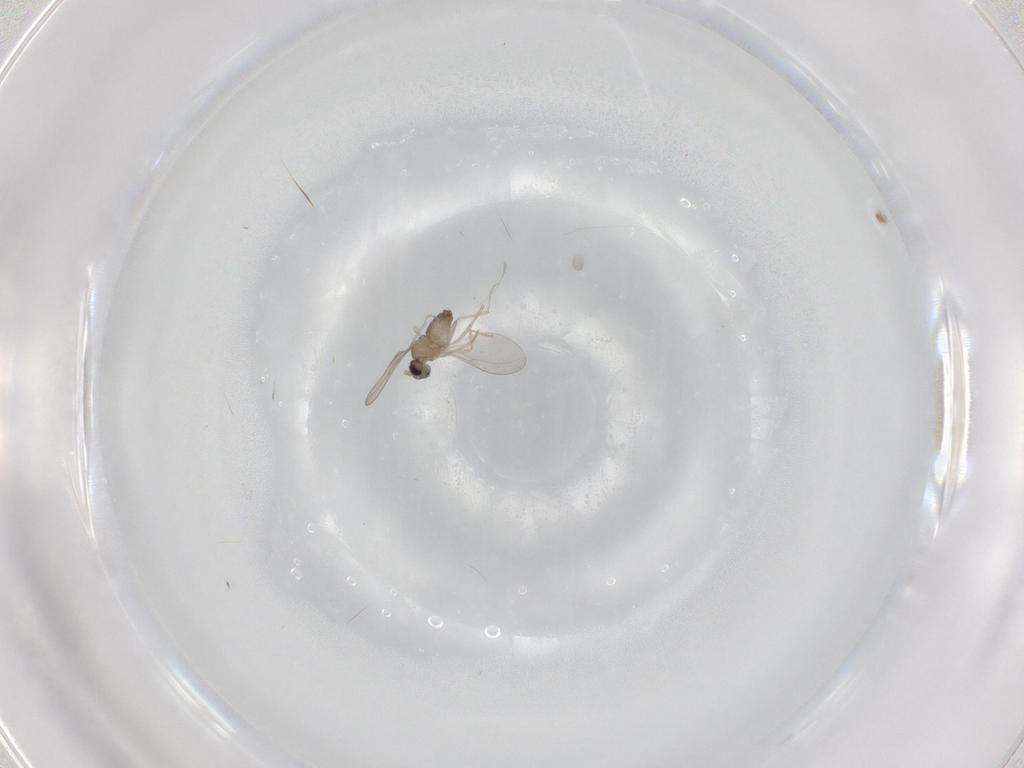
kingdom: Animalia
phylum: Arthropoda
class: Insecta
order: Diptera
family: Cecidomyiidae
